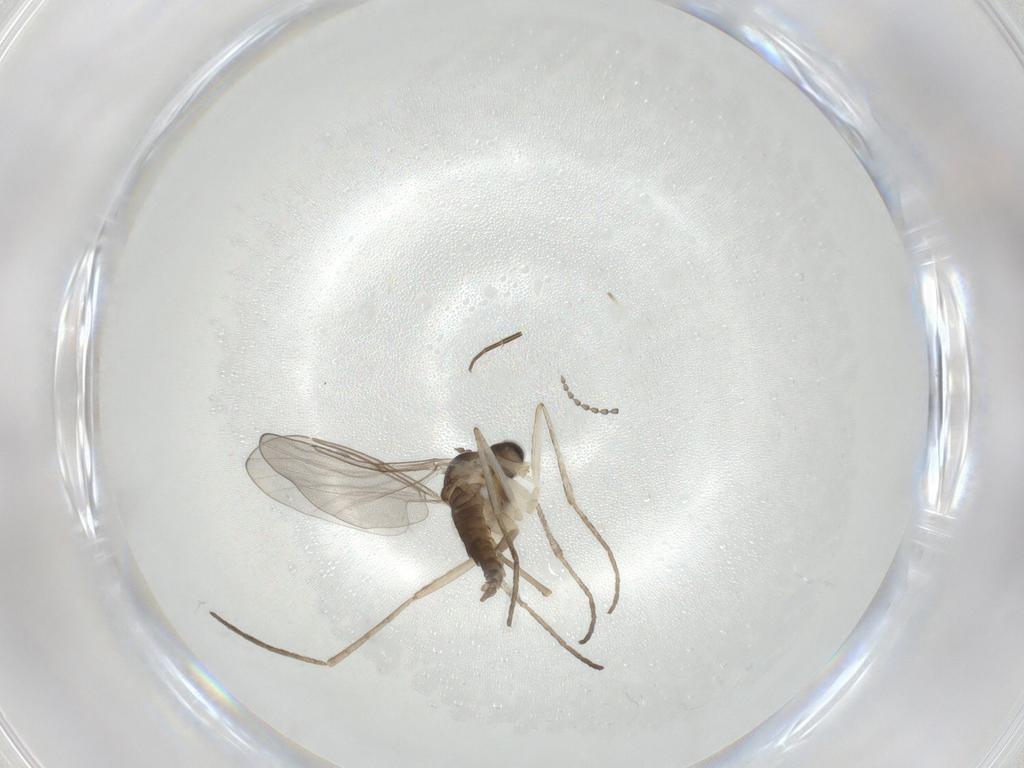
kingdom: Animalia
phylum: Arthropoda
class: Insecta
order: Diptera
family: Cecidomyiidae
